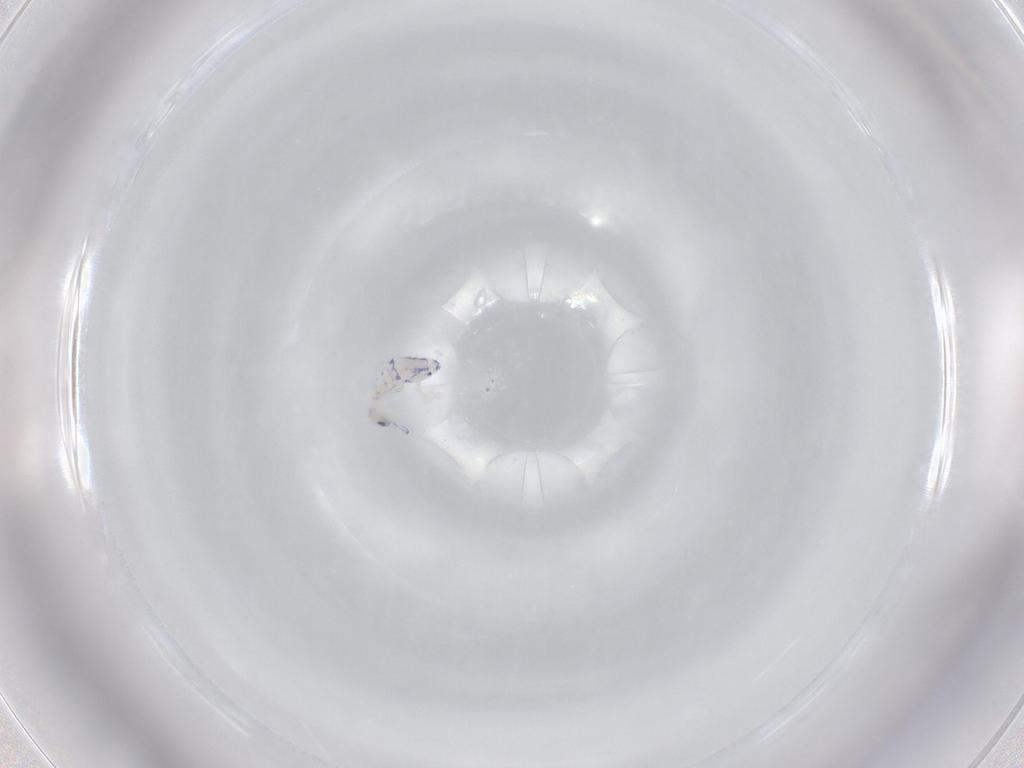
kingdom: Animalia
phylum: Arthropoda
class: Collembola
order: Entomobryomorpha
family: Entomobryidae
